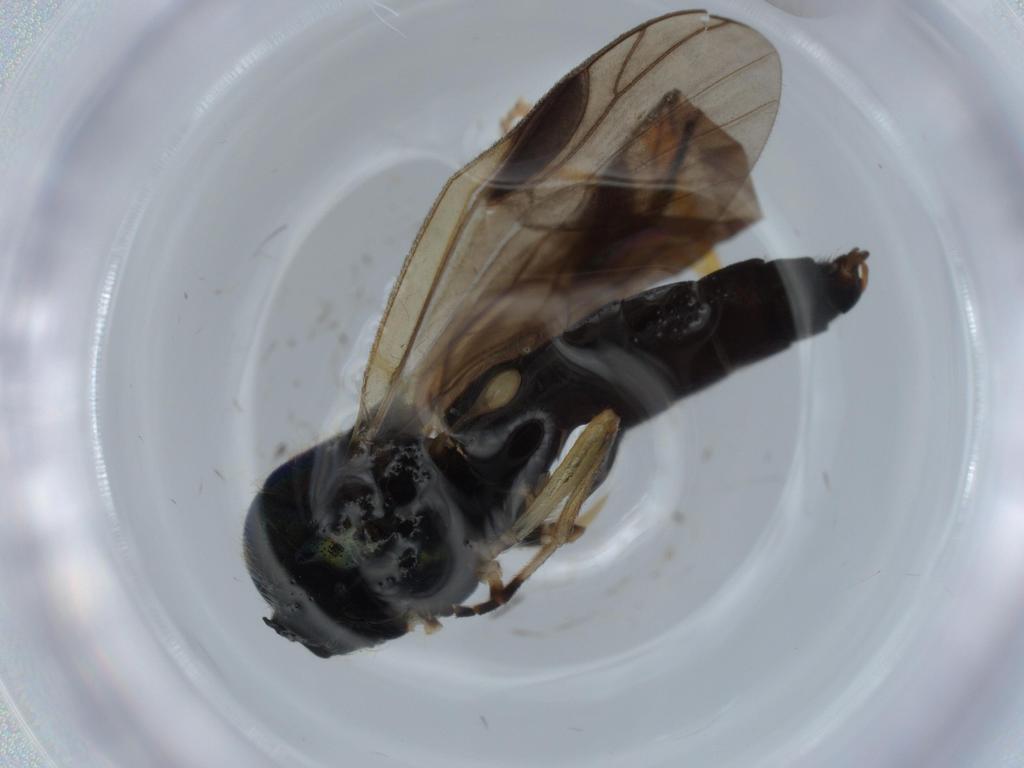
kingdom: Animalia
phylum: Arthropoda
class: Insecta
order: Diptera
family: Stratiomyidae
